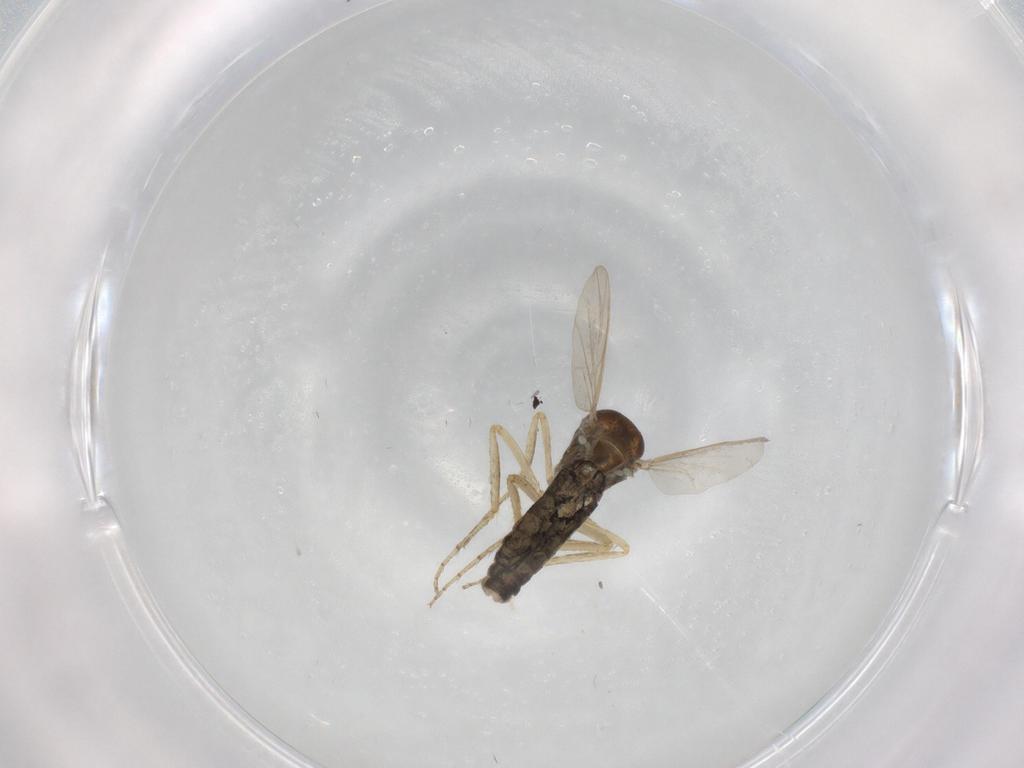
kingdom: Animalia
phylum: Arthropoda
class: Insecta
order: Diptera
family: Ceratopogonidae
